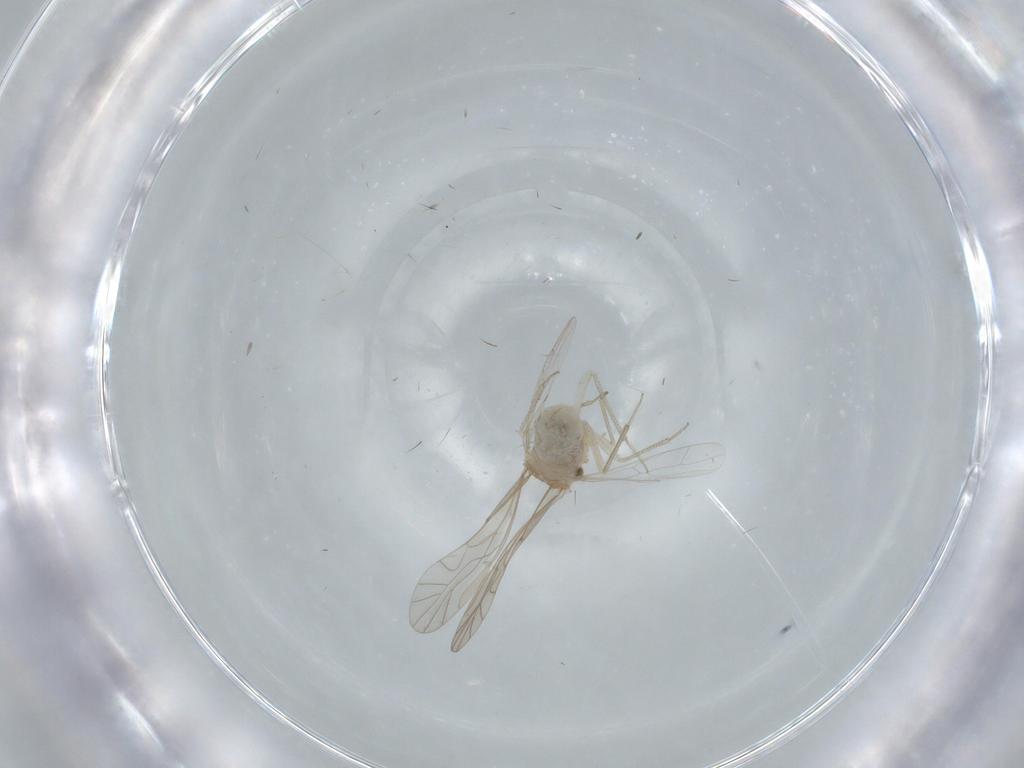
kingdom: Animalia
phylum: Arthropoda
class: Insecta
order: Psocodea
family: Lachesillidae
